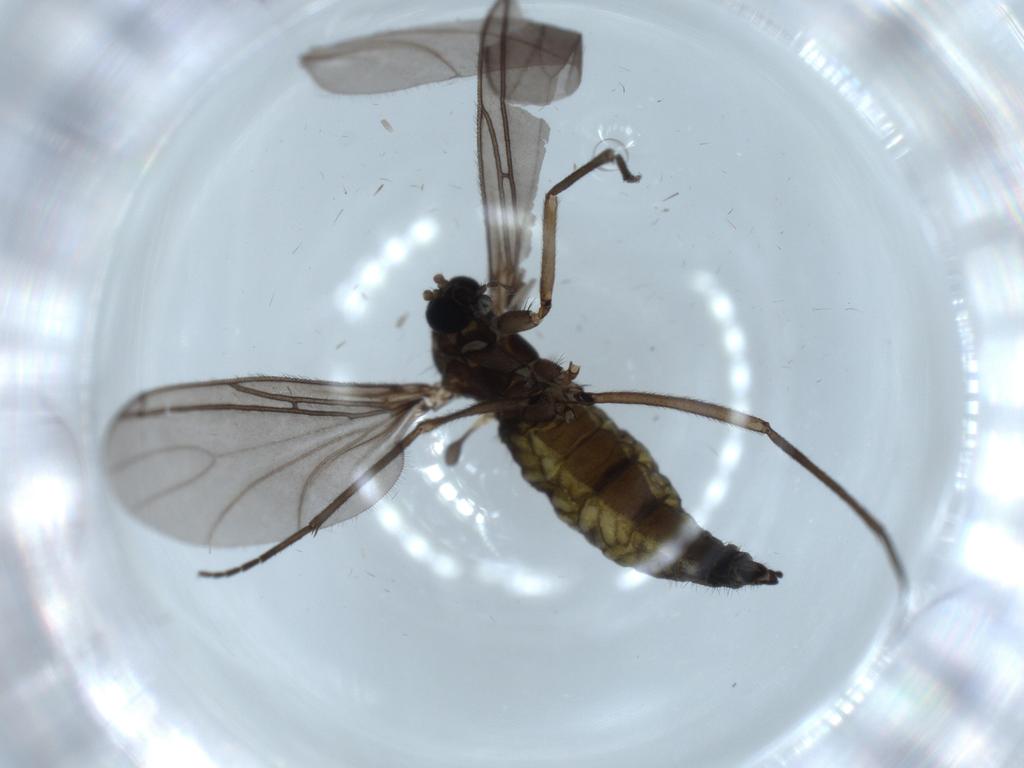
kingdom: Animalia
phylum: Arthropoda
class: Insecta
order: Diptera
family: Sciaridae
